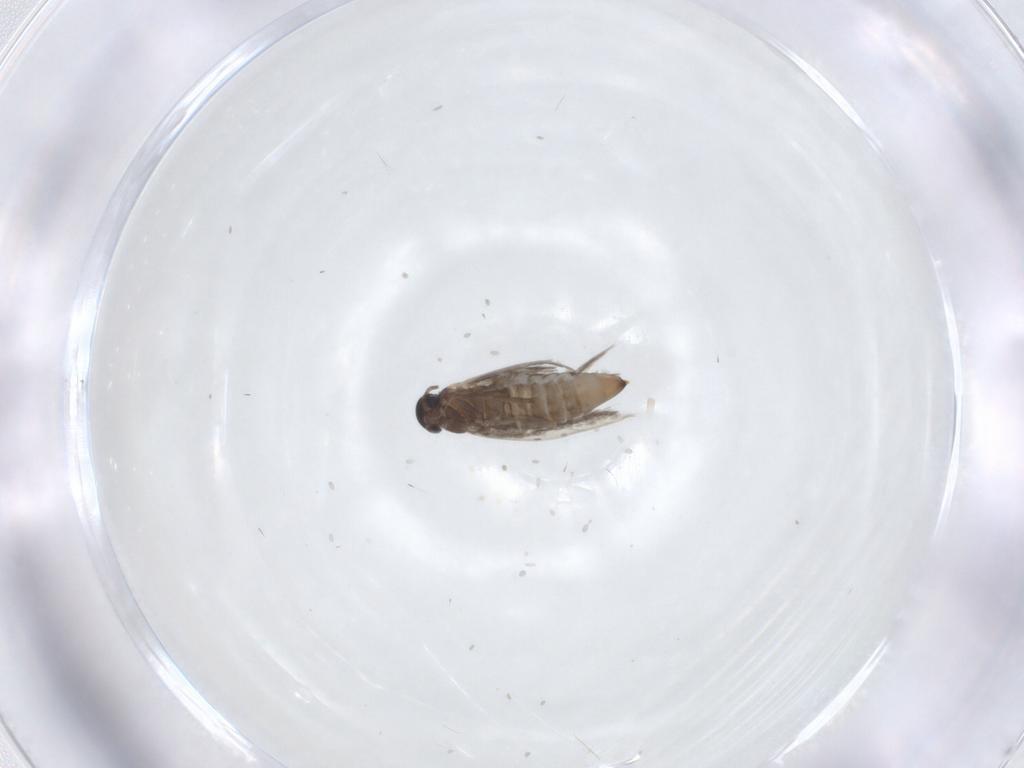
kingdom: Animalia
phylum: Arthropoda
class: Insecta
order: Lepidoptera
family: Heliozelidae
